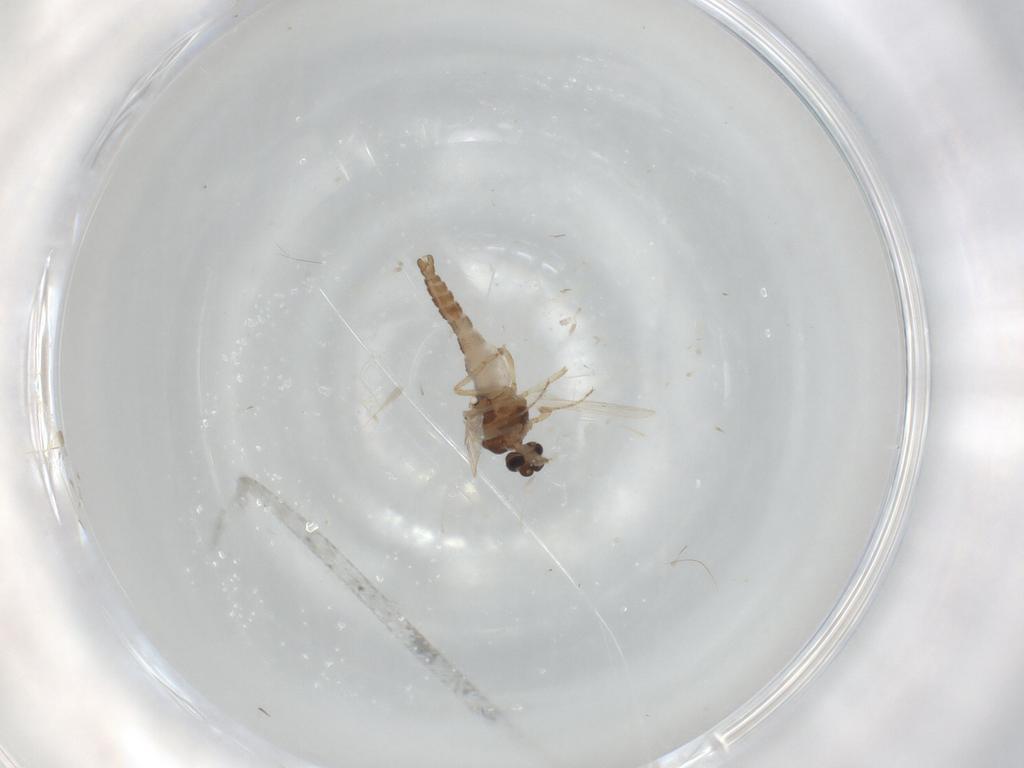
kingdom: Animalia
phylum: Arthropoda
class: Insecta
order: Diptera
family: Ceratopogonidae
